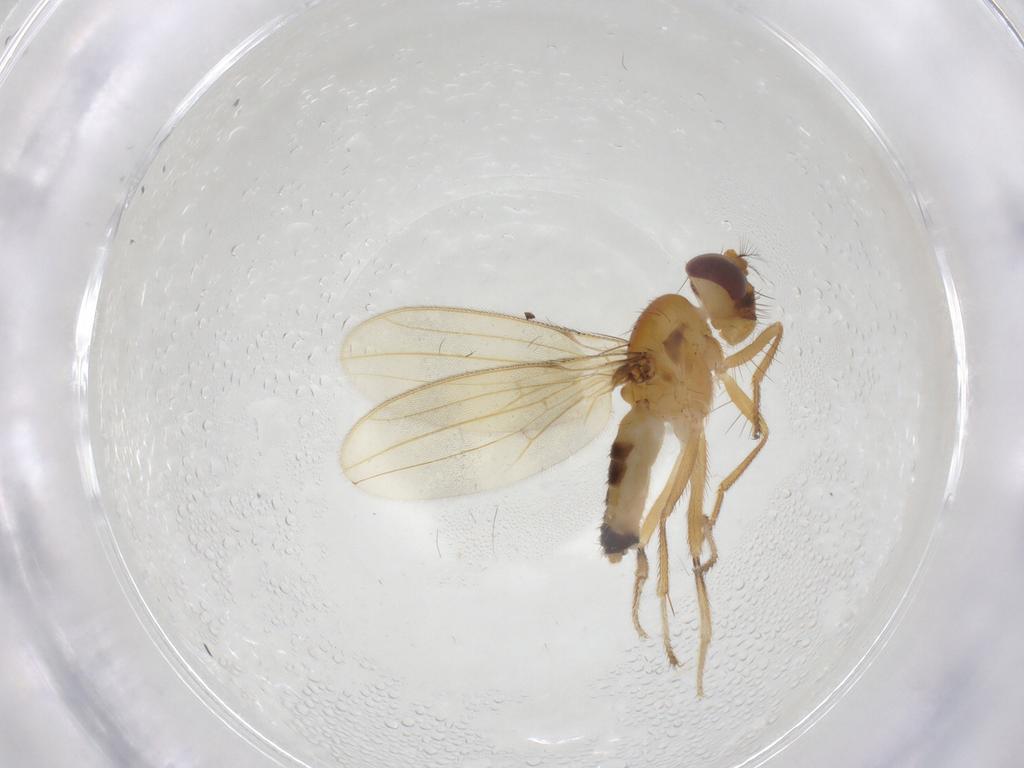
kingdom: Animalia
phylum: Arthropoda
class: Insecta
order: Diptera
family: Periscelididae
